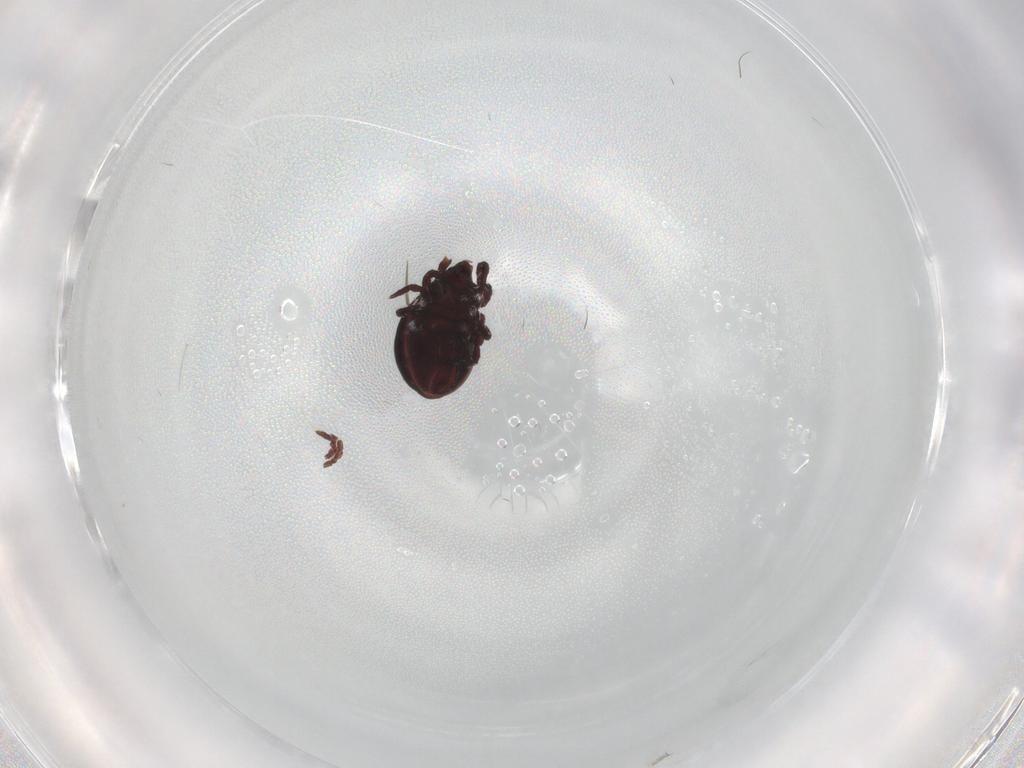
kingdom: Animalia
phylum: Arthropoda
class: Arachnida
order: Sarcoptiformes
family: Hermanniidae
